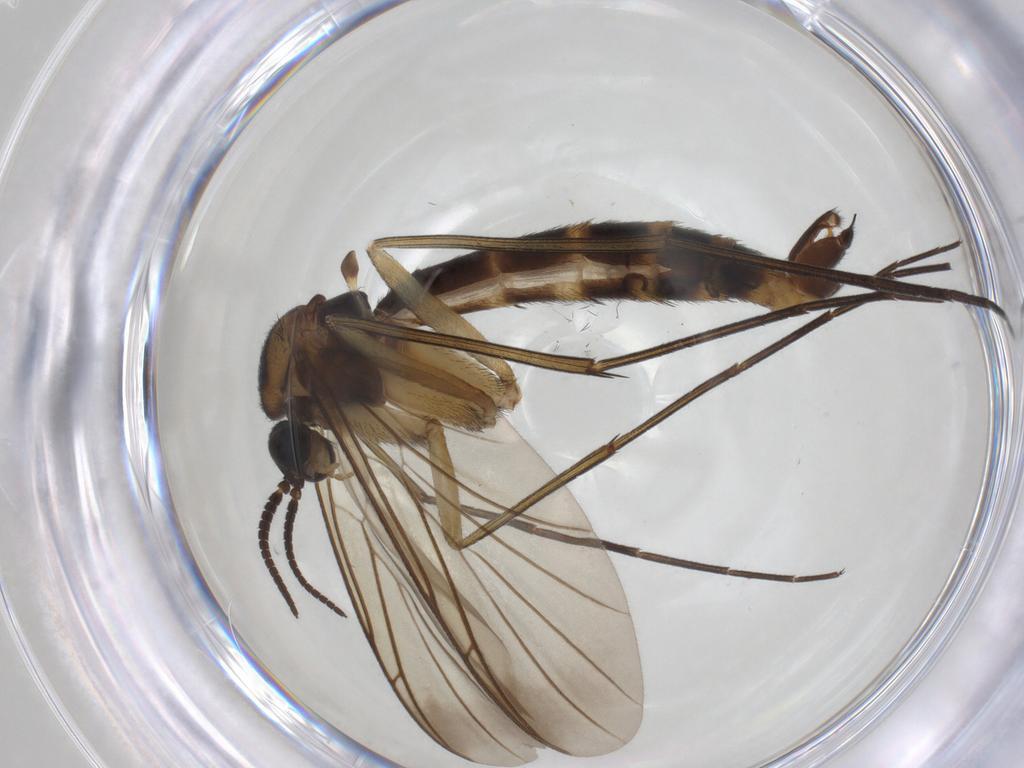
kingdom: Animalia
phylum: Arthropoda
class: Insecta
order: Diptera
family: Keroplatidae
